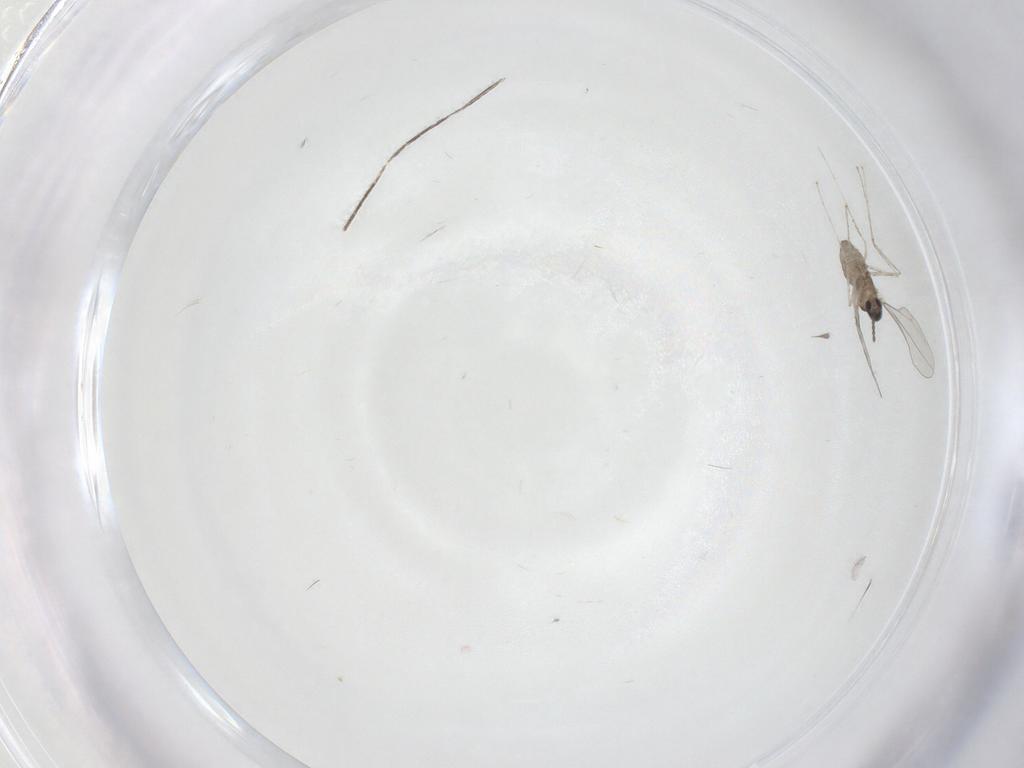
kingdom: Animalia
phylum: Arthropoda
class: Insecta
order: Diptera
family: Cecidomyiidae
